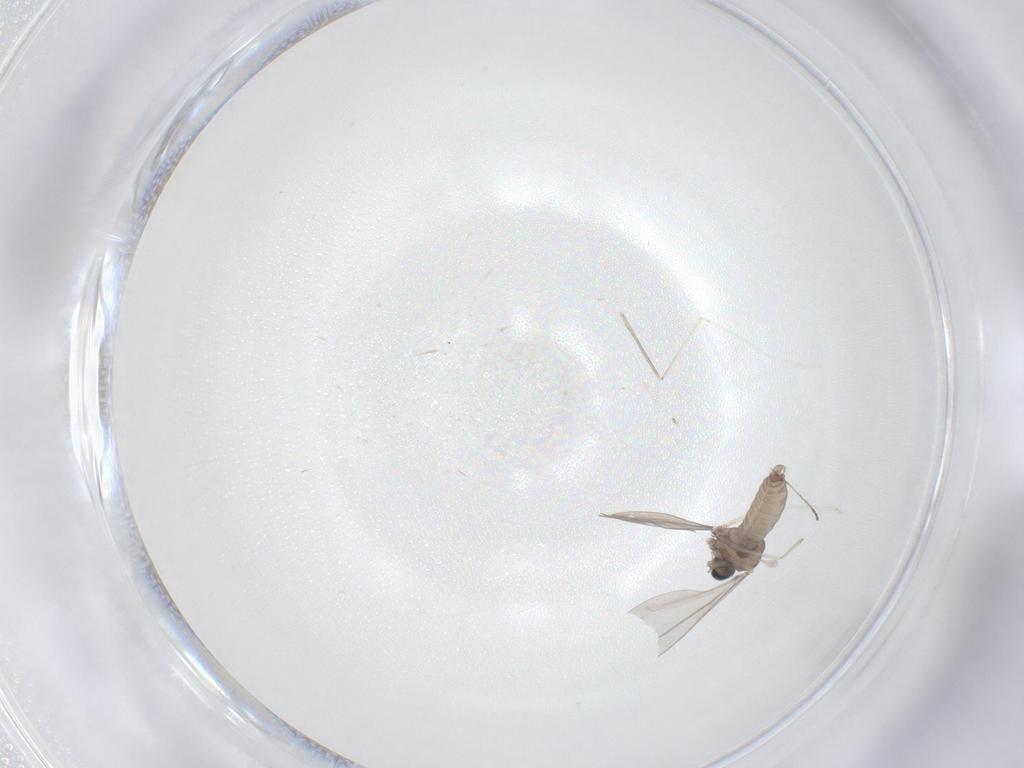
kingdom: Animalia
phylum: Arthropoda
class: Insecta
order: Diptera
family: Cecidomyiidae
